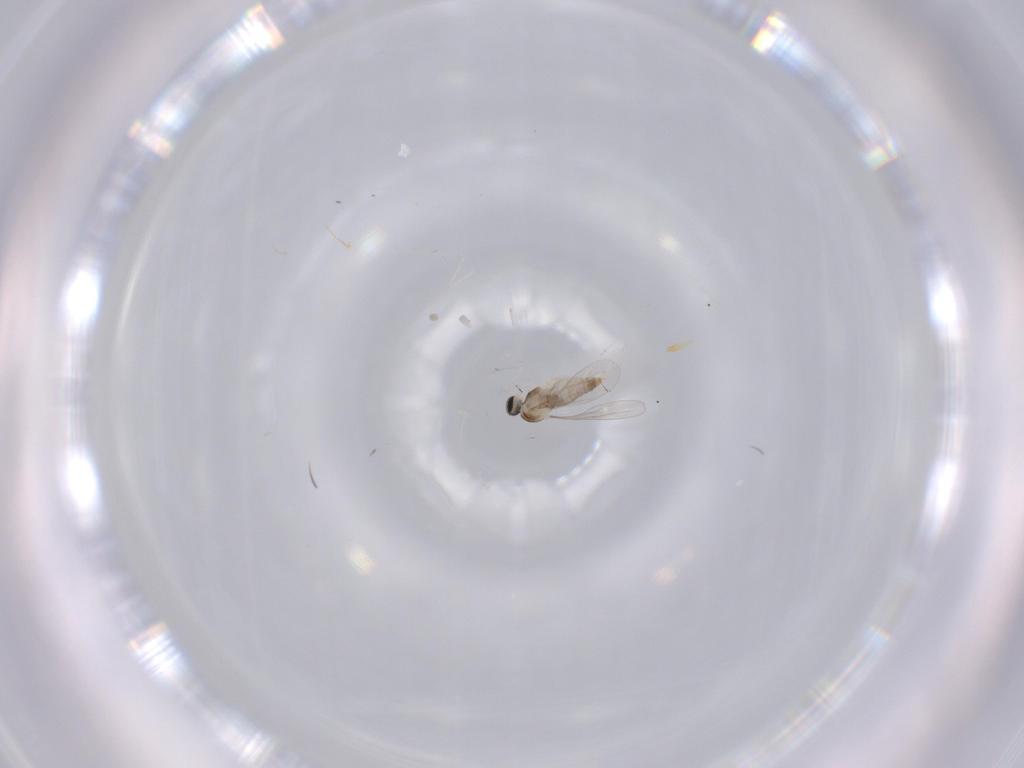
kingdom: Animalia
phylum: Arthropoda
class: Insecta
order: Diptera
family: Cecidomyiidae
